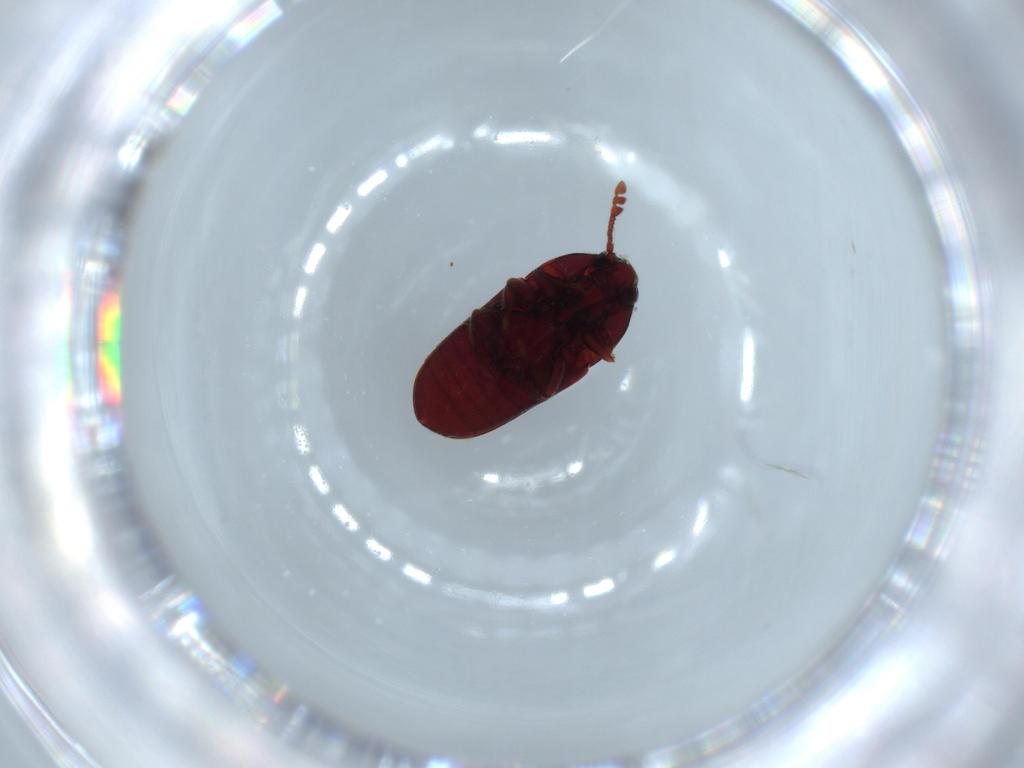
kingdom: Animalia
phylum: Arthropoda
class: Insecta
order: Coleoptera
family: Throscidae
